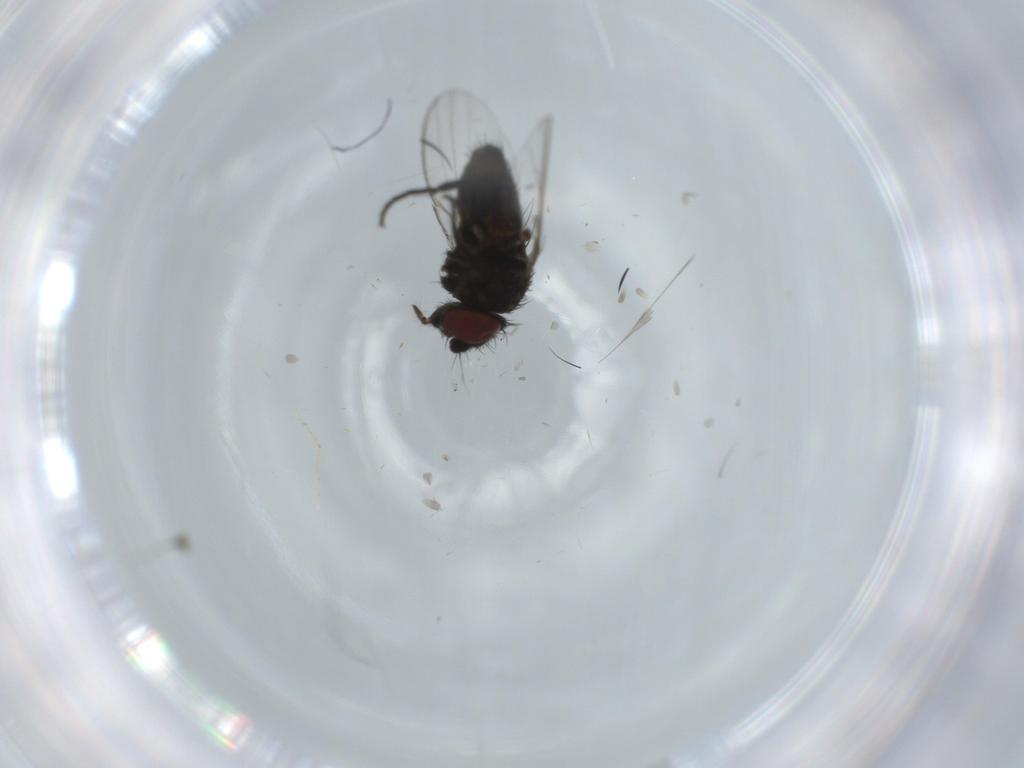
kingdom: Animalia
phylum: Arthropoda
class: Insecta
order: Diptera
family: Milichiidae
